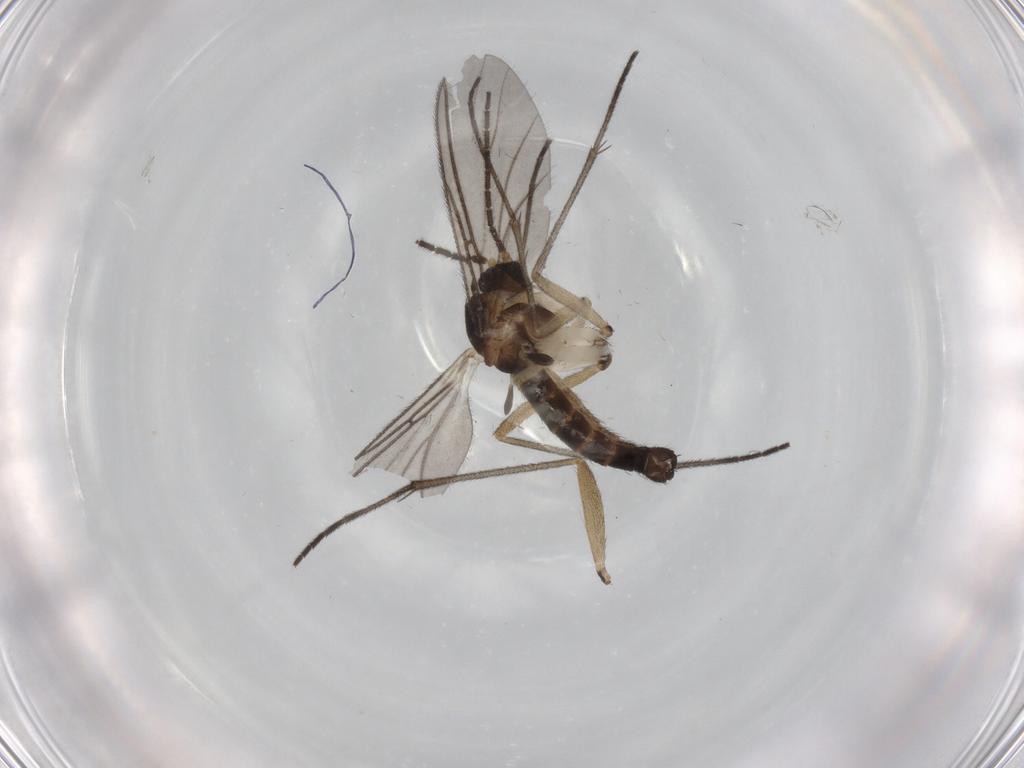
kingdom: Animalia
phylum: Arthropoda
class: Insecta
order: Diptera
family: Sciaridae
